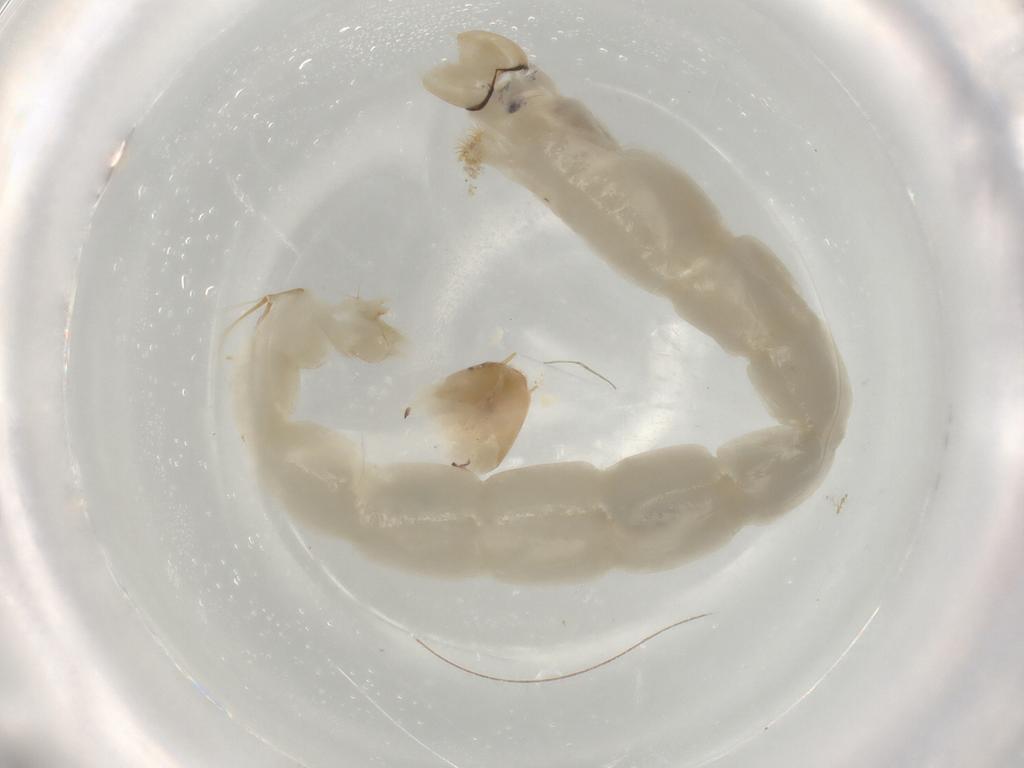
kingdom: Animalia
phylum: Arthropoda
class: Insecta
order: Diptera
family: Chironomidae
